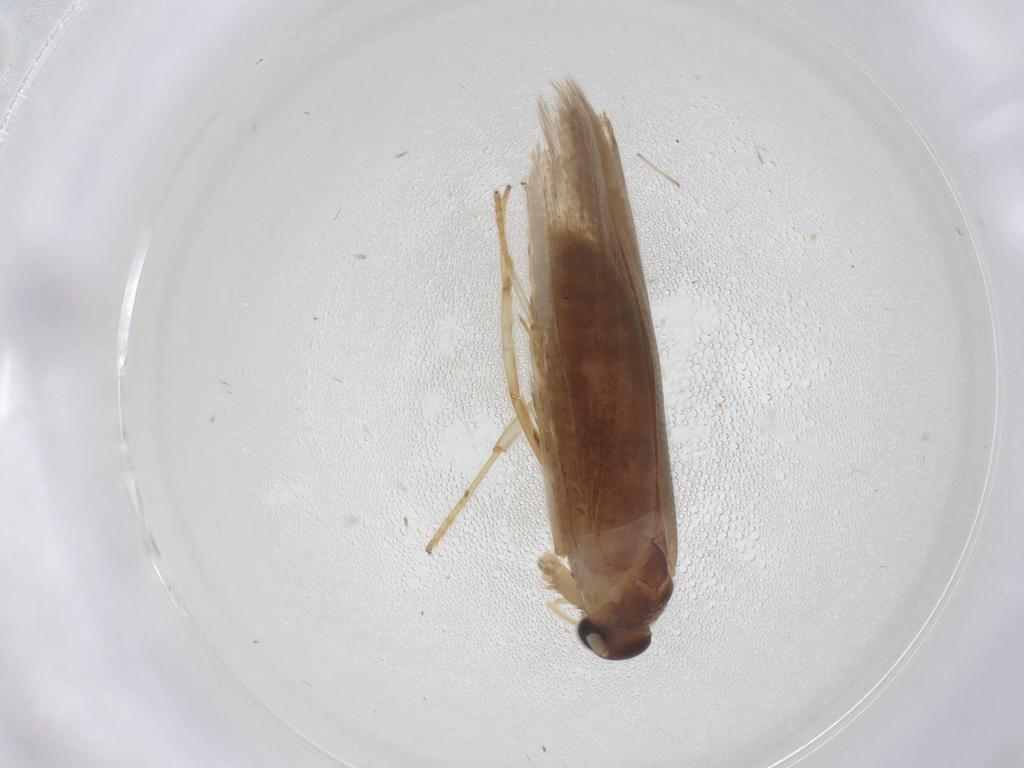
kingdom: Animalia
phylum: Arthropoda
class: Insecta
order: Lepidoptera
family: Blastobasidae
